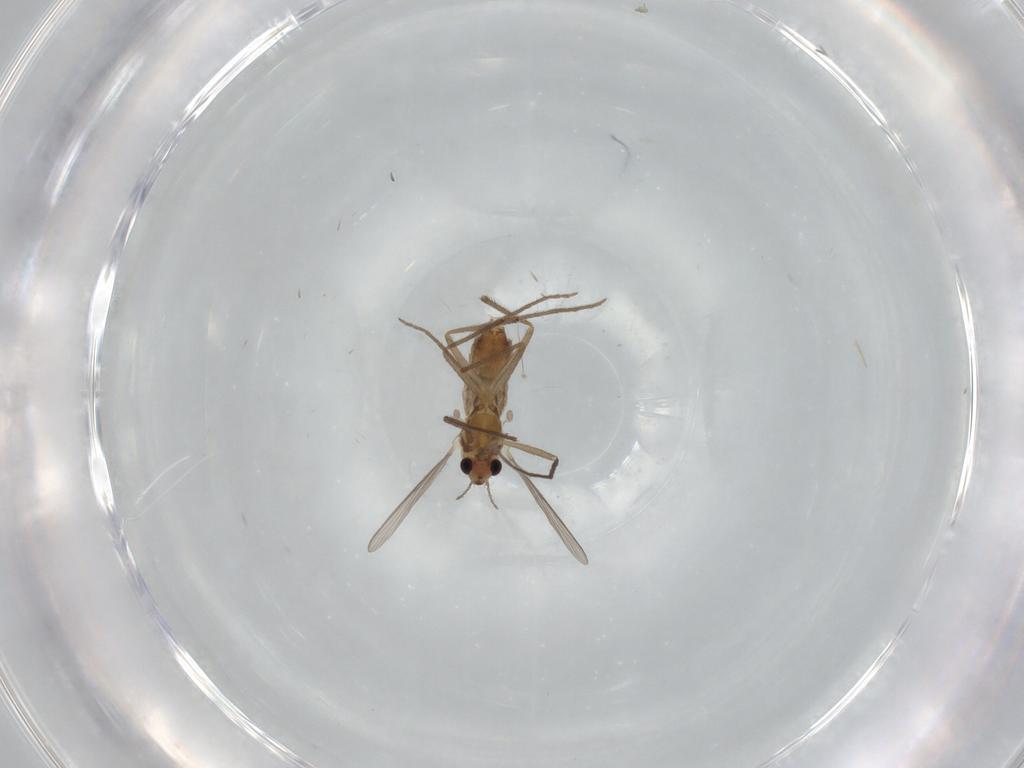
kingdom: Animalia
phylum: Arthropoda
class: Insecta
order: Diptera
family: Chironomidae
